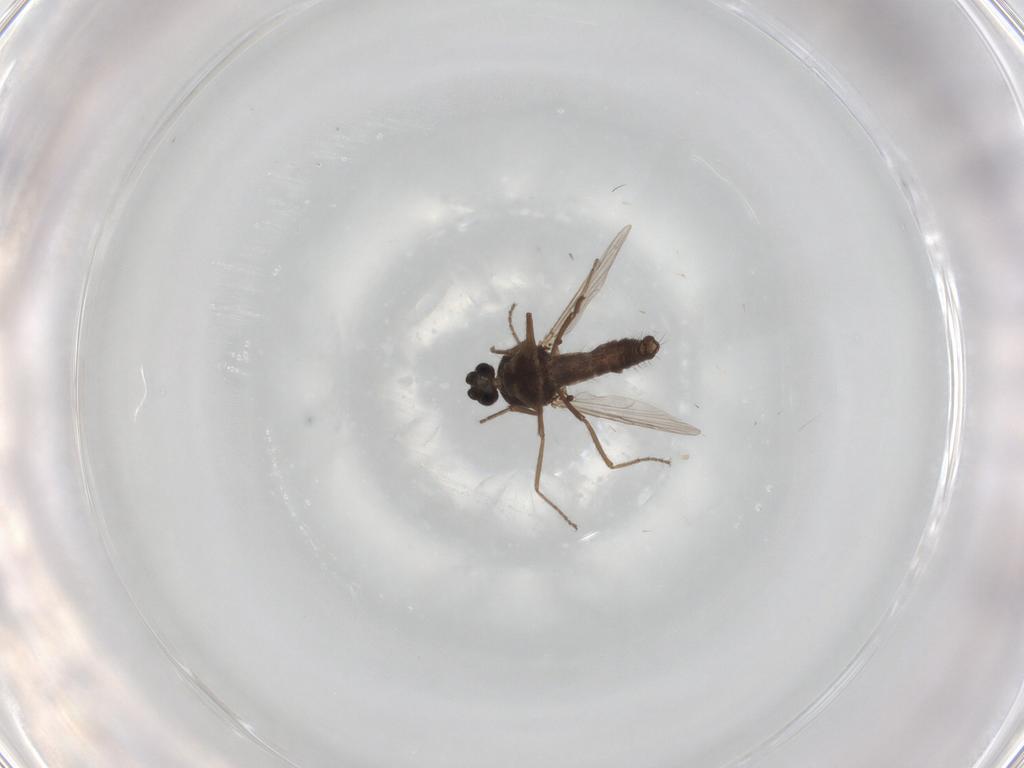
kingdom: Animalia
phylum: Arthropoda
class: Insecta
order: Diptera
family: Ceratopogonidae
